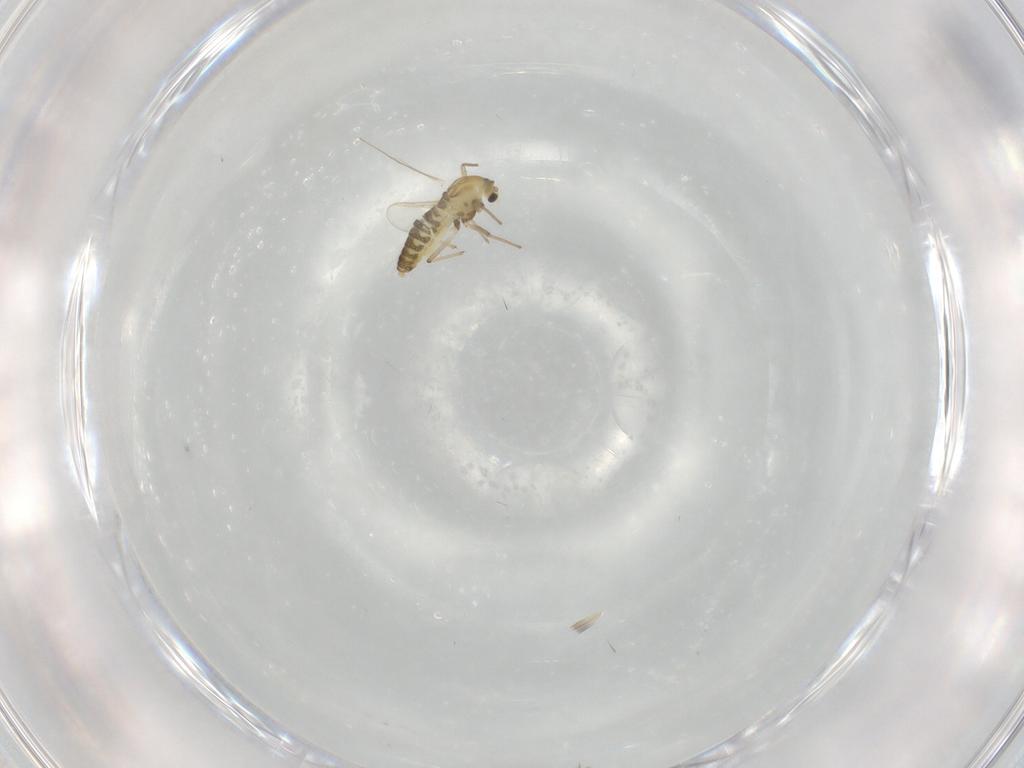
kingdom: Animalia
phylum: Arthropoda
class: Insecta
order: Diptera
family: Chironomidae
